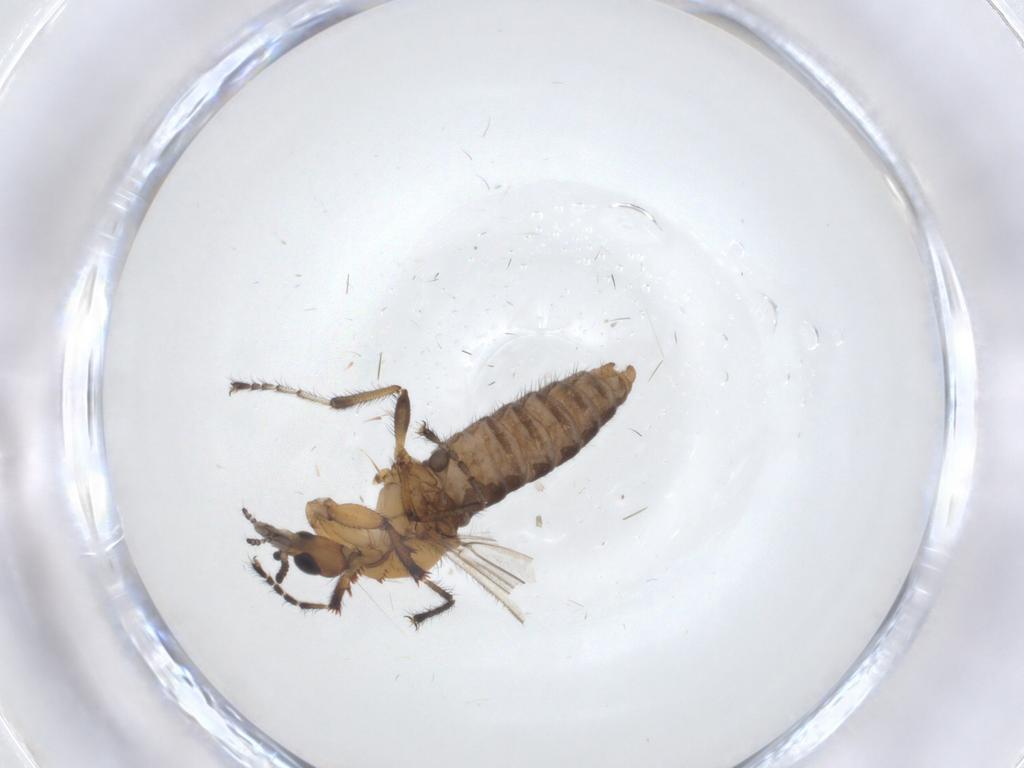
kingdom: Animalia
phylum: Arthropoda
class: Insecta
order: Diptera
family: Bibionidae
